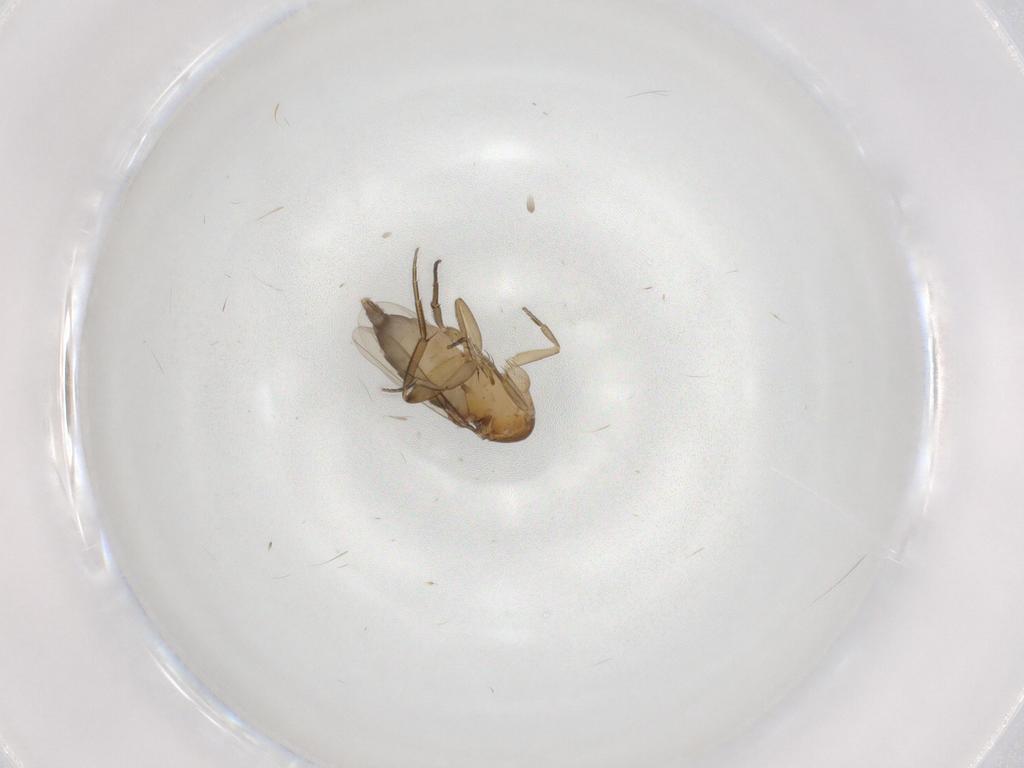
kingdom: Animalia
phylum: Arthropoda
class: Insecta
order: Diptera
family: Phoridae
